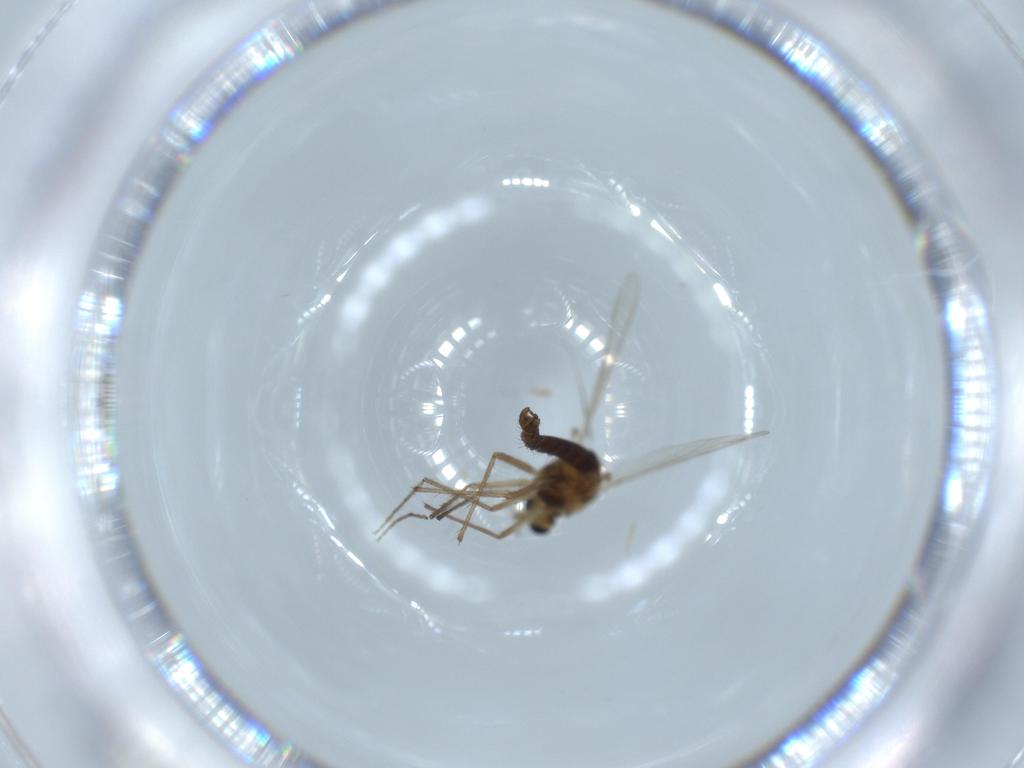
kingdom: Animalia
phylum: Arthropoda
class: Insecta
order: Diptera
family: Chironomidae
